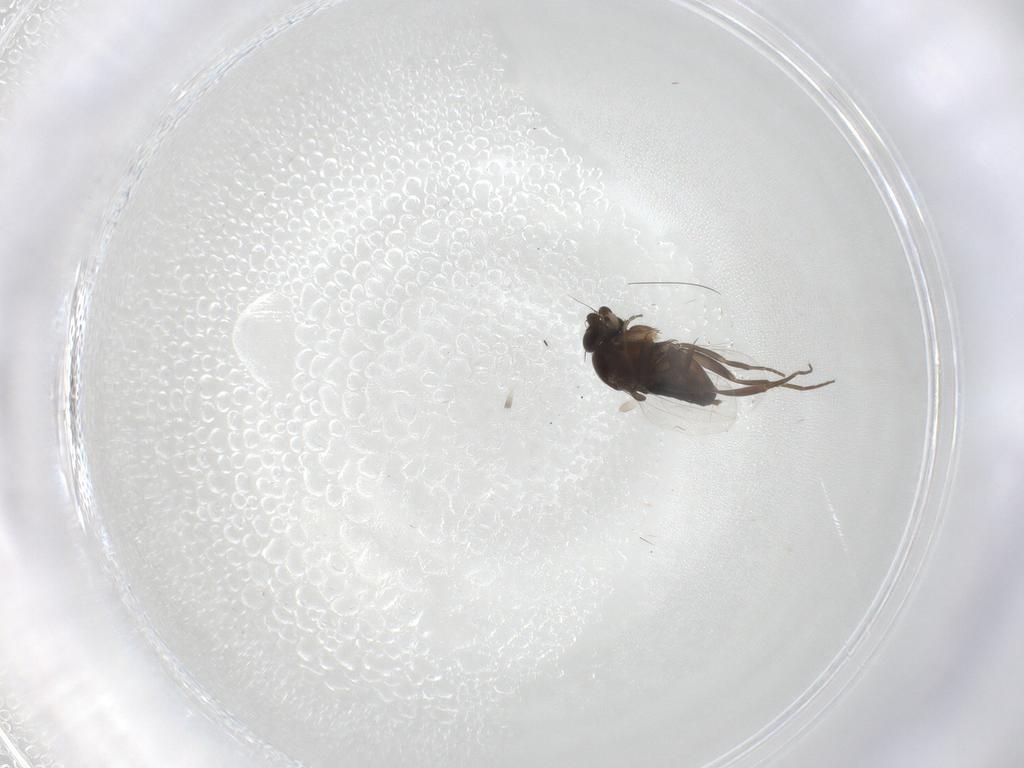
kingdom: Animalia
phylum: Arthropoda
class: Insecta
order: Diptera
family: Phoridae
